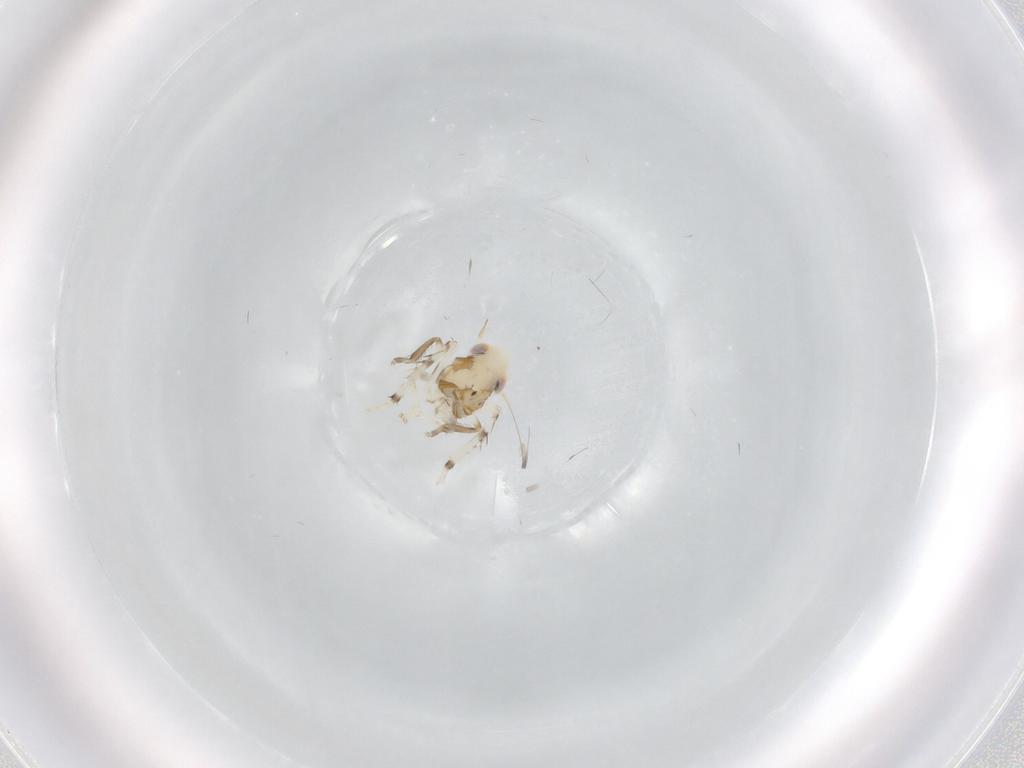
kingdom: Animalia
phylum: Arthropoda
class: Insecta
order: Hemiptera
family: Cicadellidae
